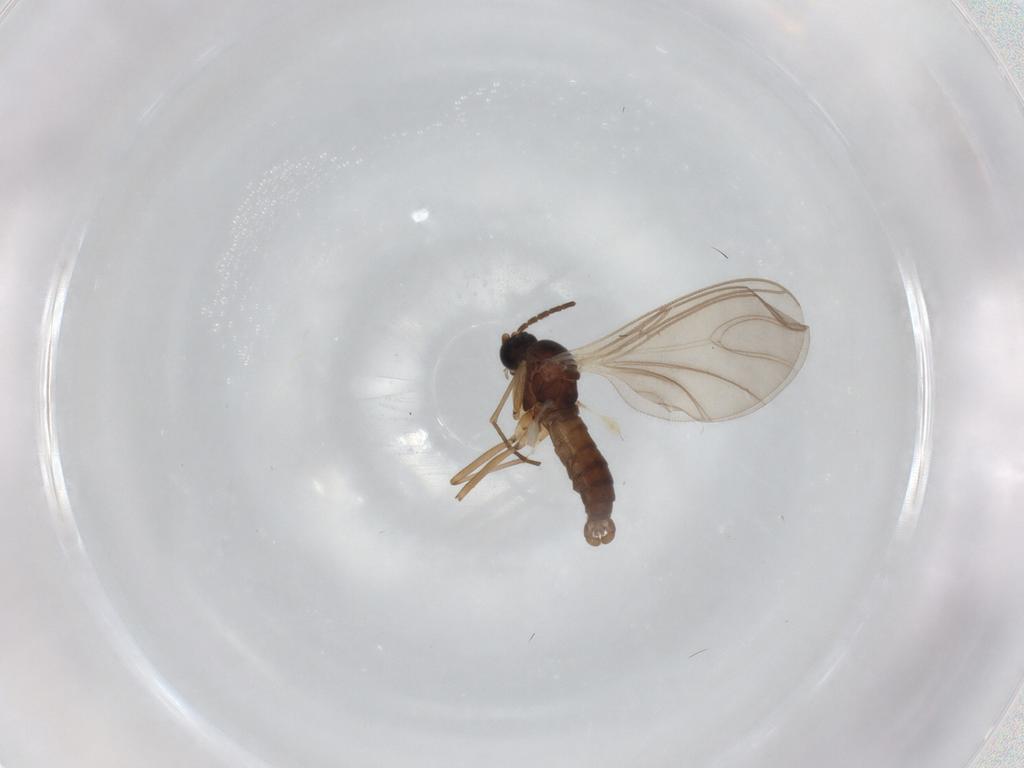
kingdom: Animalia
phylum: Arthropoda
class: Insecta
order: Diptera
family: Sciaridae
